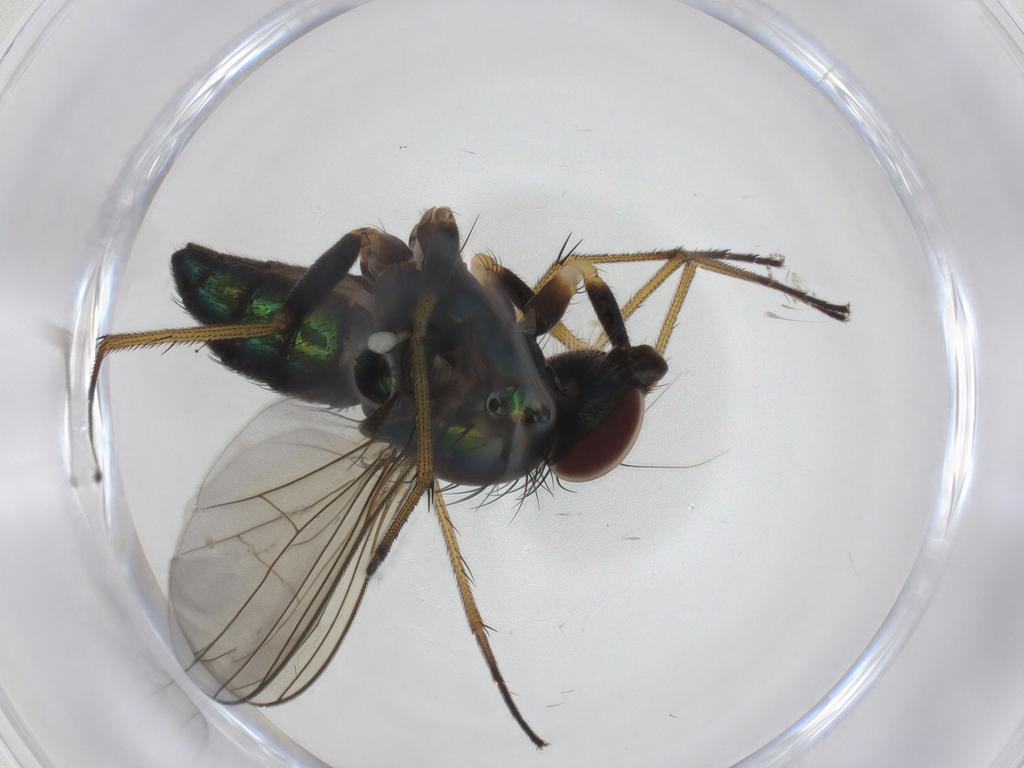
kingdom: Animalia
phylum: Arthropoda
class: Insecta
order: Diptera
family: Dolichopodidae
